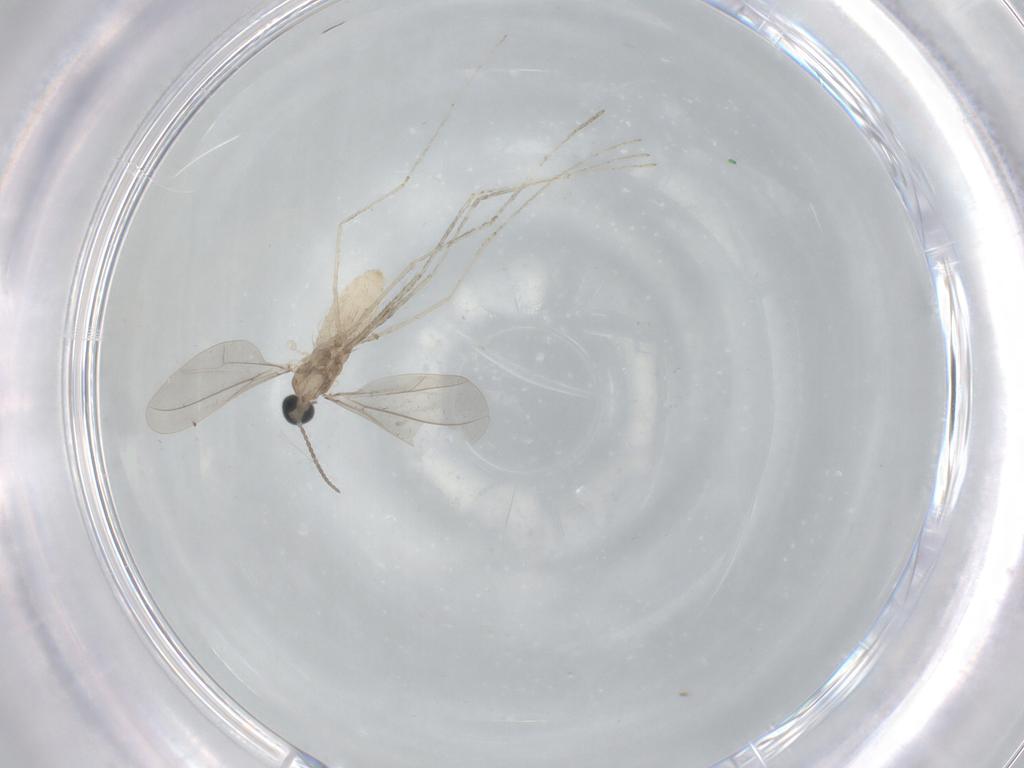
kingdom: Animalia
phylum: Arthropoda
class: Insecta
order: Diptera
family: Cecidomyiidae
